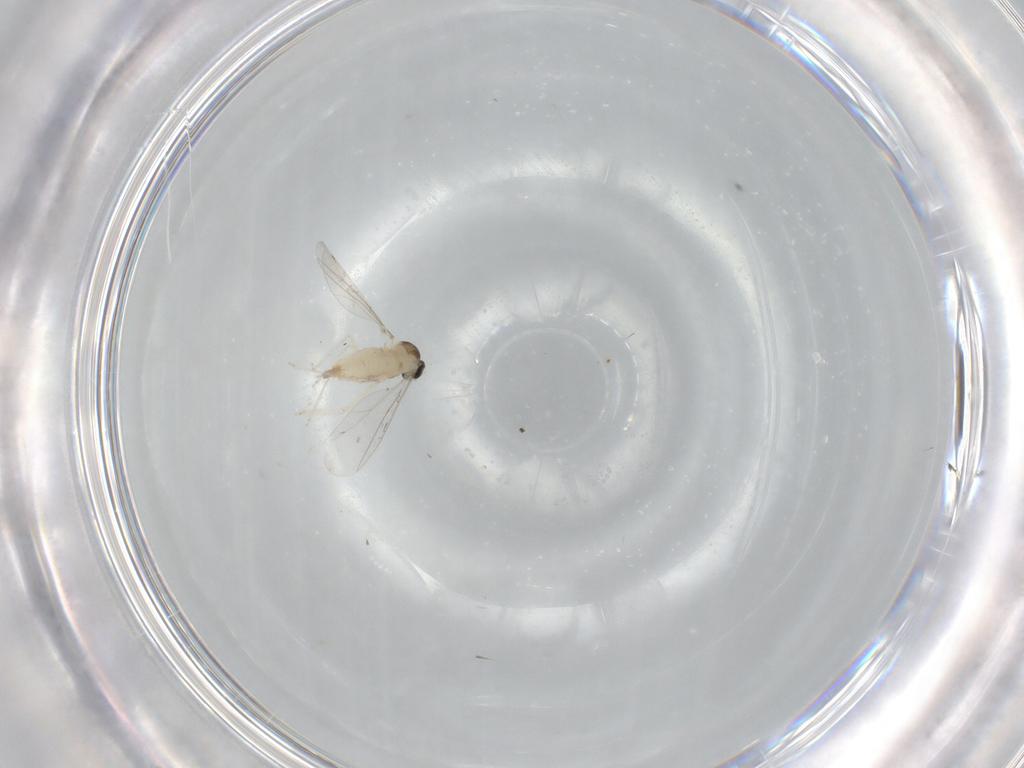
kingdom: Animalia
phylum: Arthropoda
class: Insecta
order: Diptera
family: Cecidomyiidae
